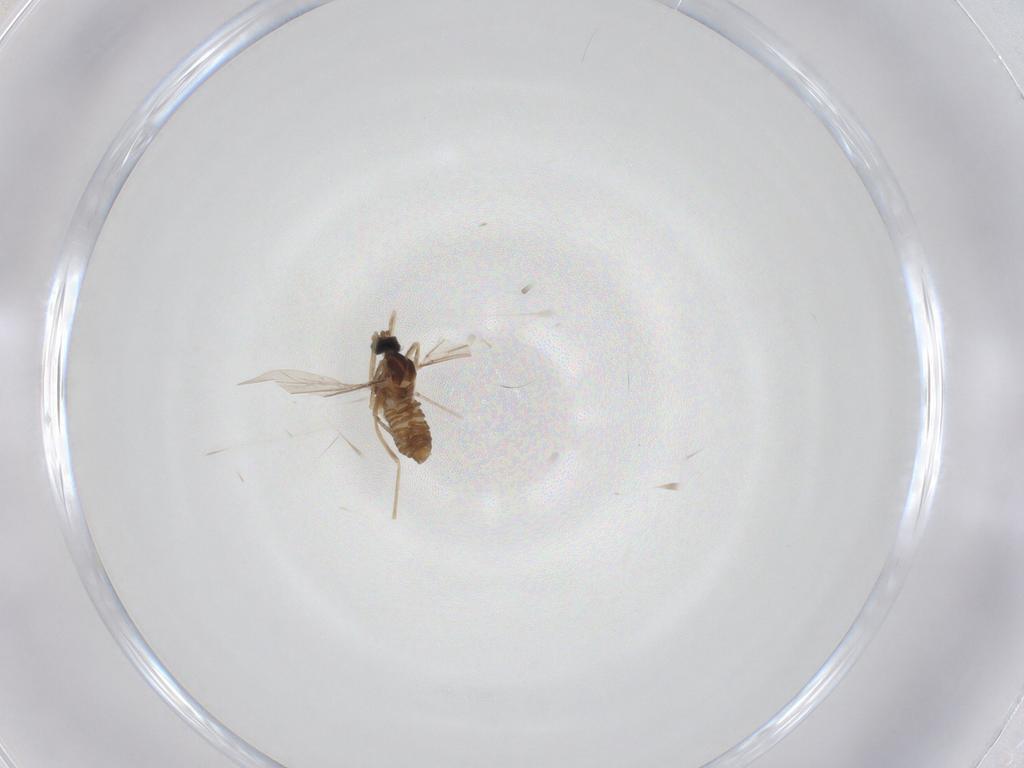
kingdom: Animalia
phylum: Arthropoda
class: Insecta
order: Diptera
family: Cecidomyiidae
